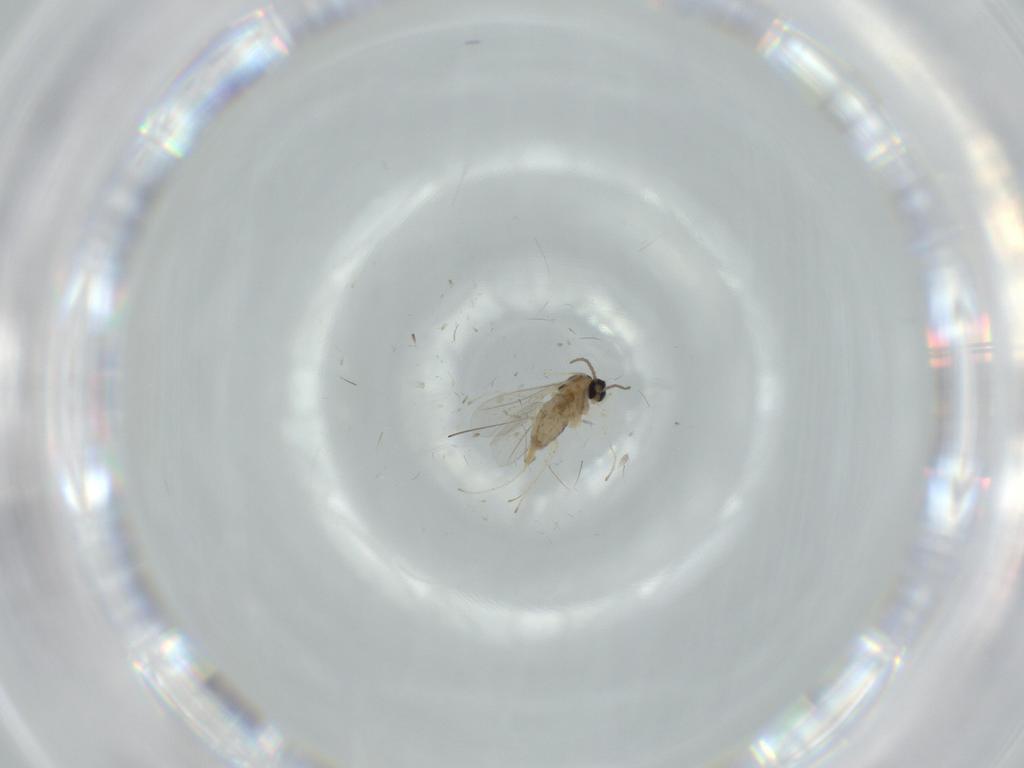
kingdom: Animalia
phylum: Arthropoda
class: Insecta
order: Diptera
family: Cecidomyiidae
